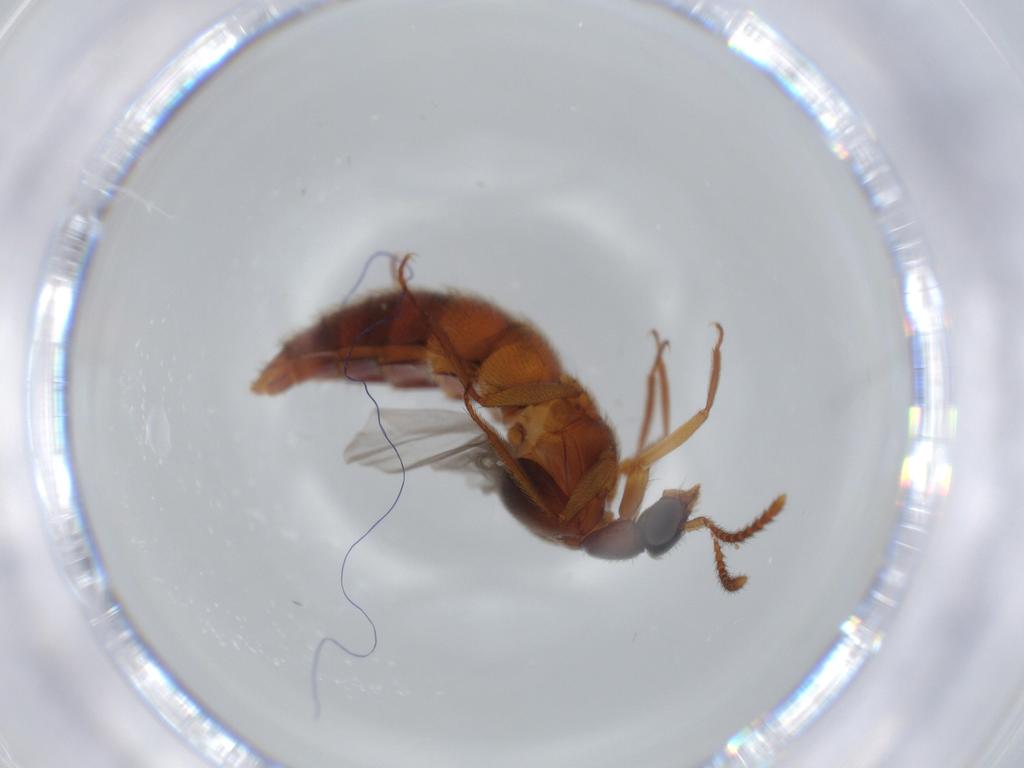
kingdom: Animalia
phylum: Arthropoda
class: Insecta
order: Coleoptera
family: Staphylinidae
